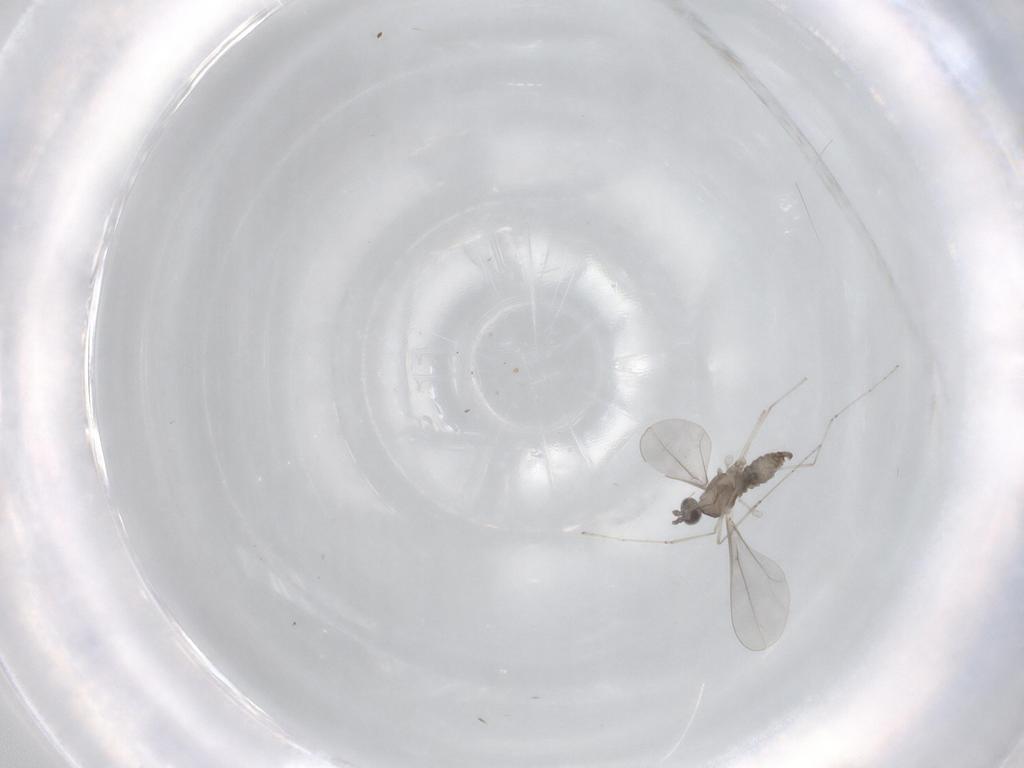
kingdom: Animalia
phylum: Arthropoda
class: Insecta
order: Diptera
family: Cecidomyiidae
